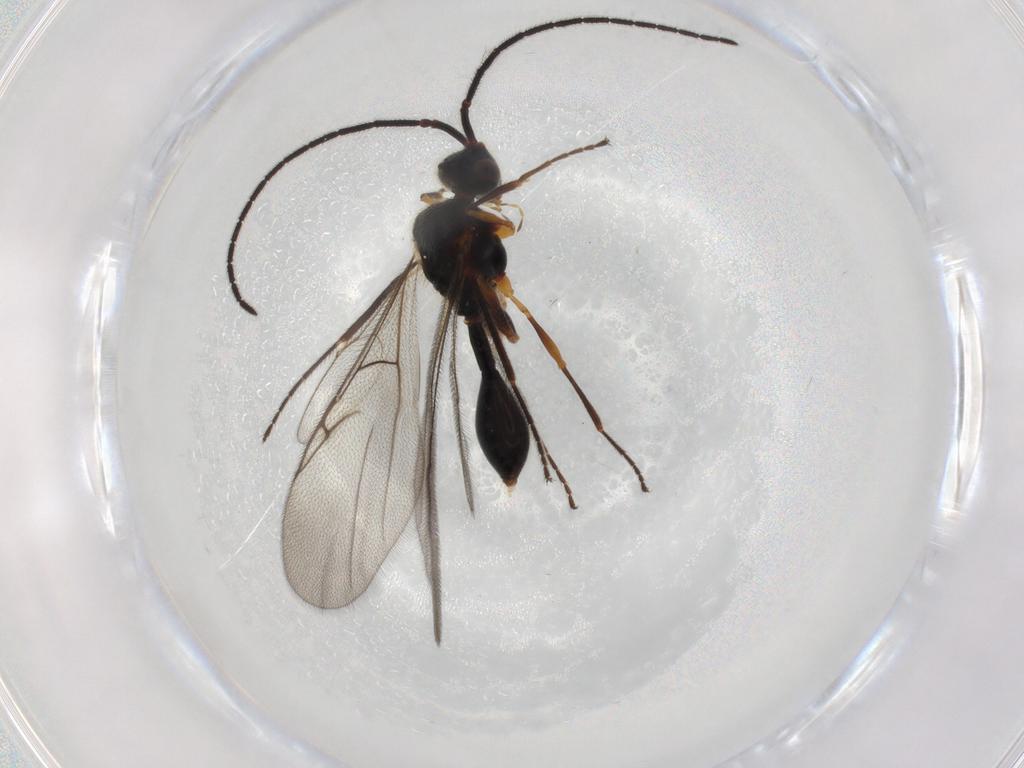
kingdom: Animalia
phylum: Arthropoda
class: Insecta
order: Hymenoptera
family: Diapriidae
